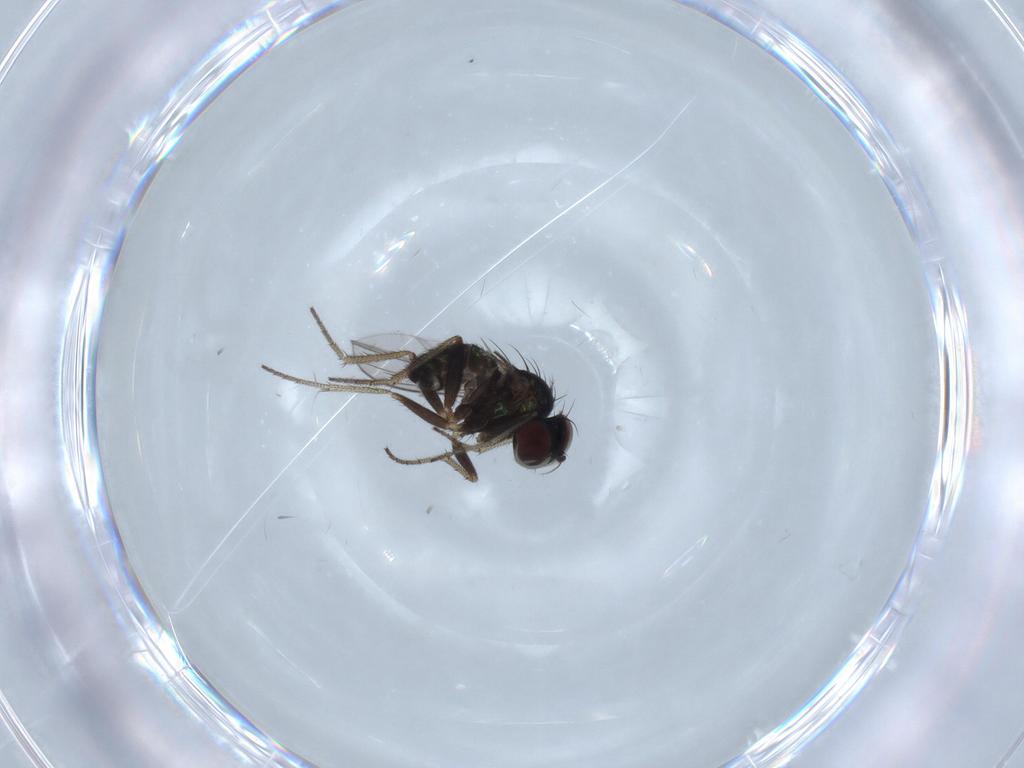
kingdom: Animalia
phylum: Arthropoda
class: Insecta
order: Diptera
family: Dolichopodidae
